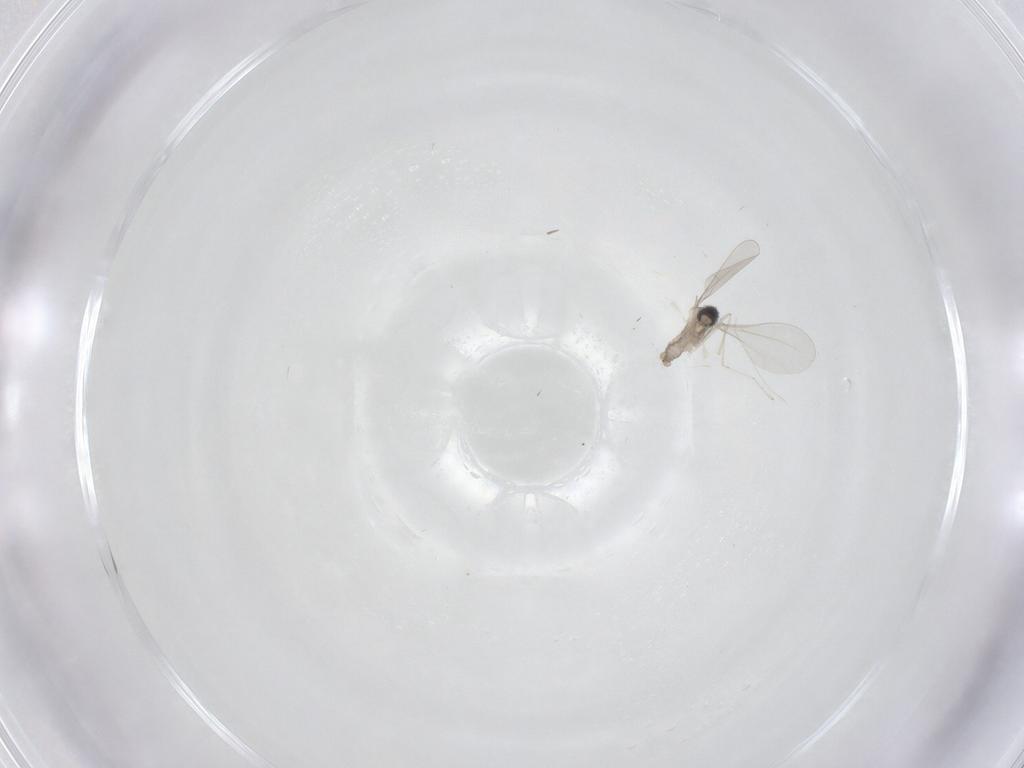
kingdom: Animalia
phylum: Arthropoda
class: Insecta
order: Diptera
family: Cecidomyiidae
